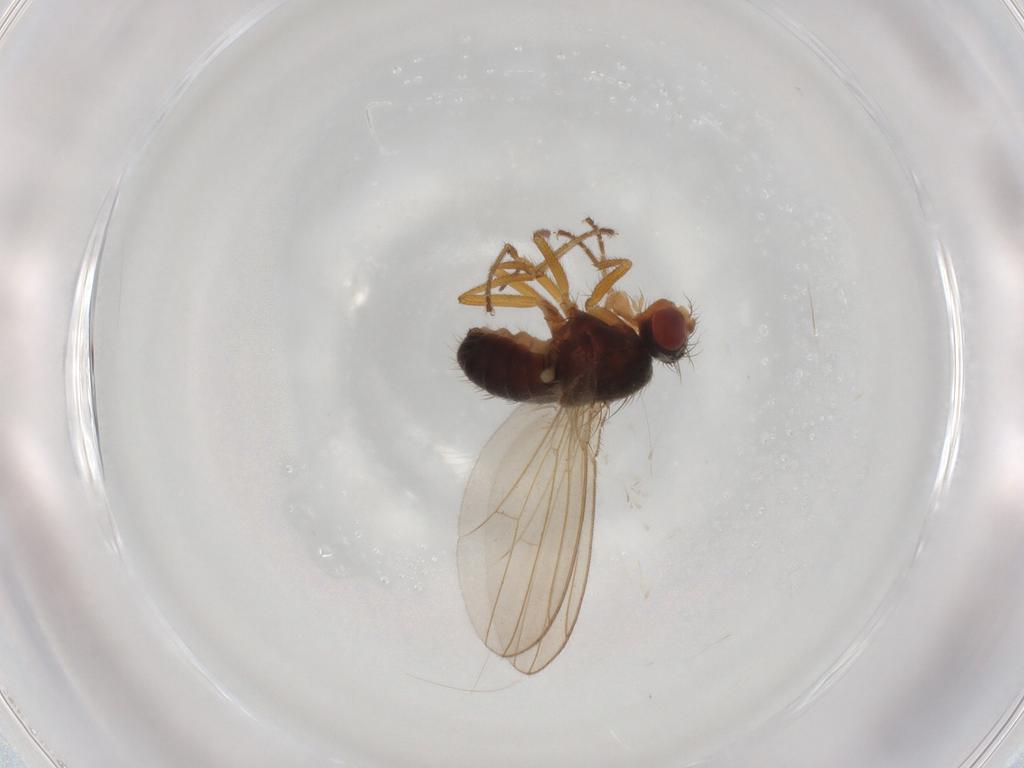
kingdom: Animalia
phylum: Arthropoda
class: Insecta
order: Diptera
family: Drosophilidae
